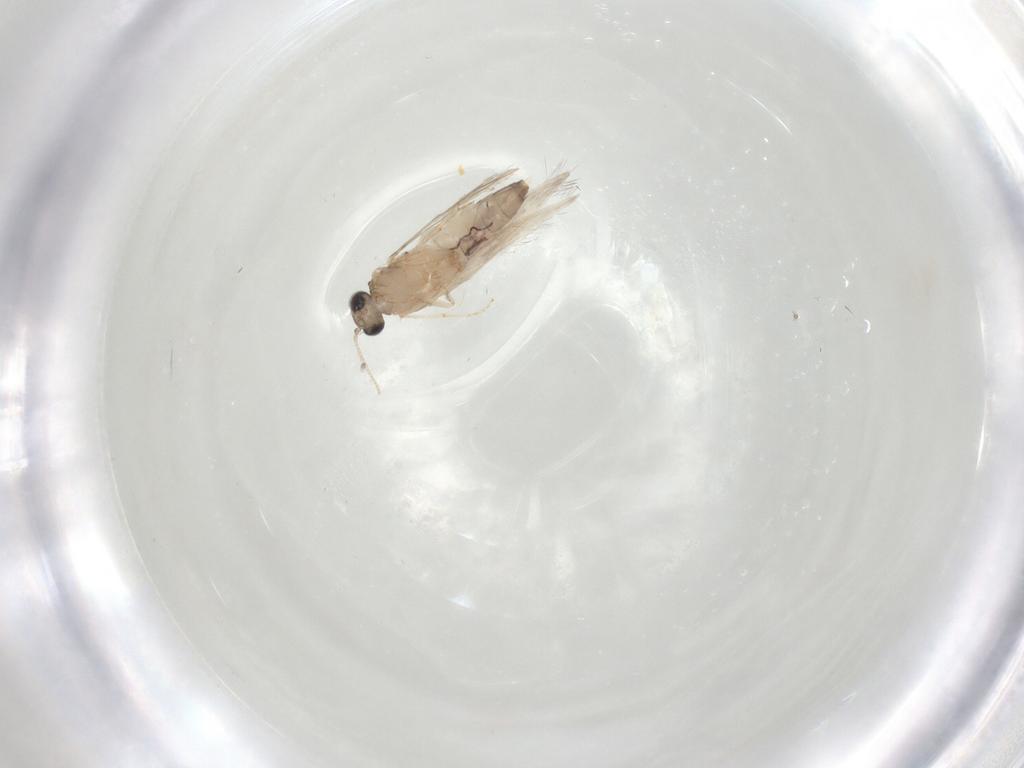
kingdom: Animalia
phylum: Arthropoda
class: Insecta
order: Trichoptera
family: Hydroptilidae
